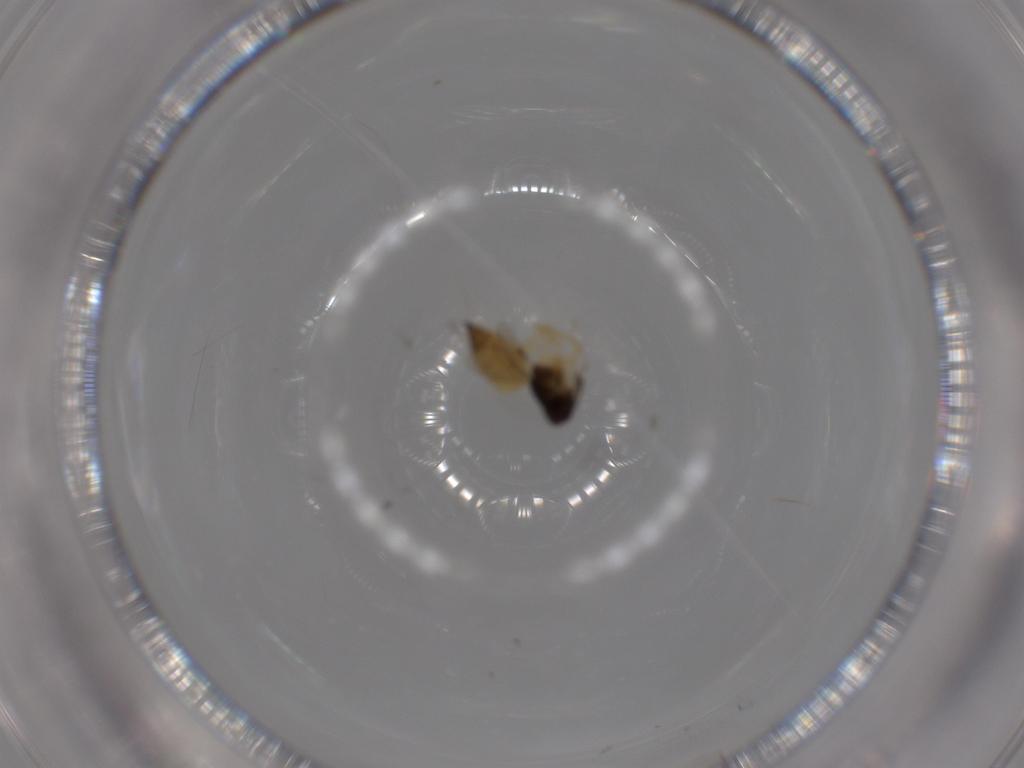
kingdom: Animalia
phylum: Arthropoda
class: Insecta
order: Hymenoptera
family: Eulophidae
